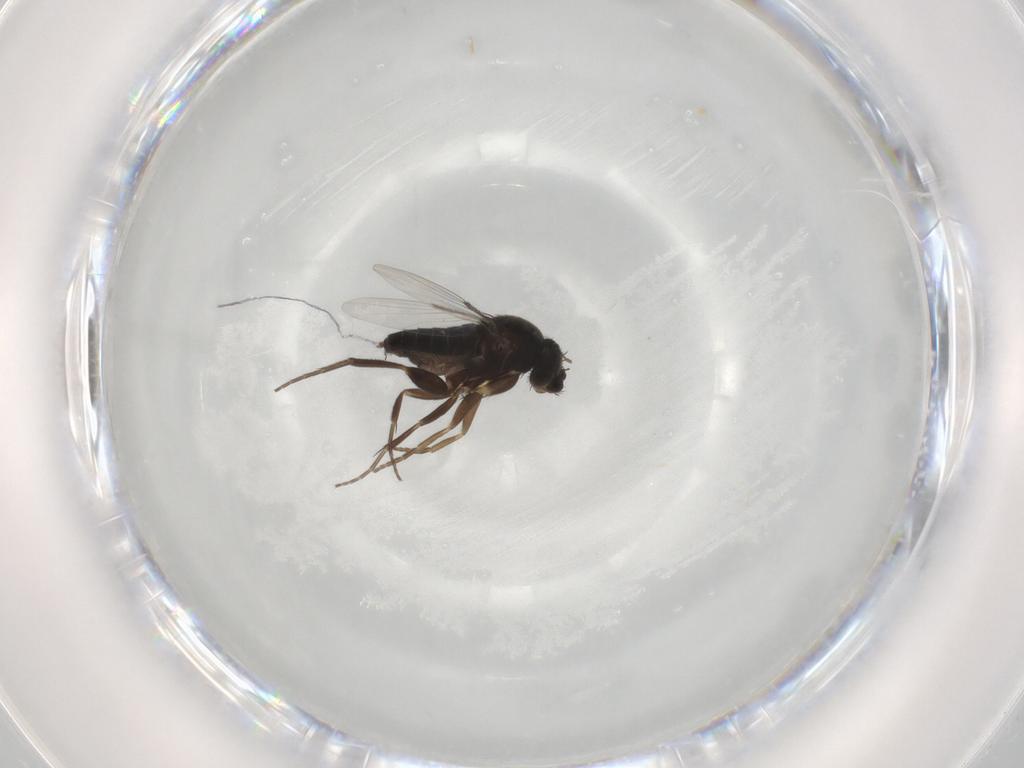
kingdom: Animalia
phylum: Arthropoda
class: Insecta
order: Diptera
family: Phoridae
